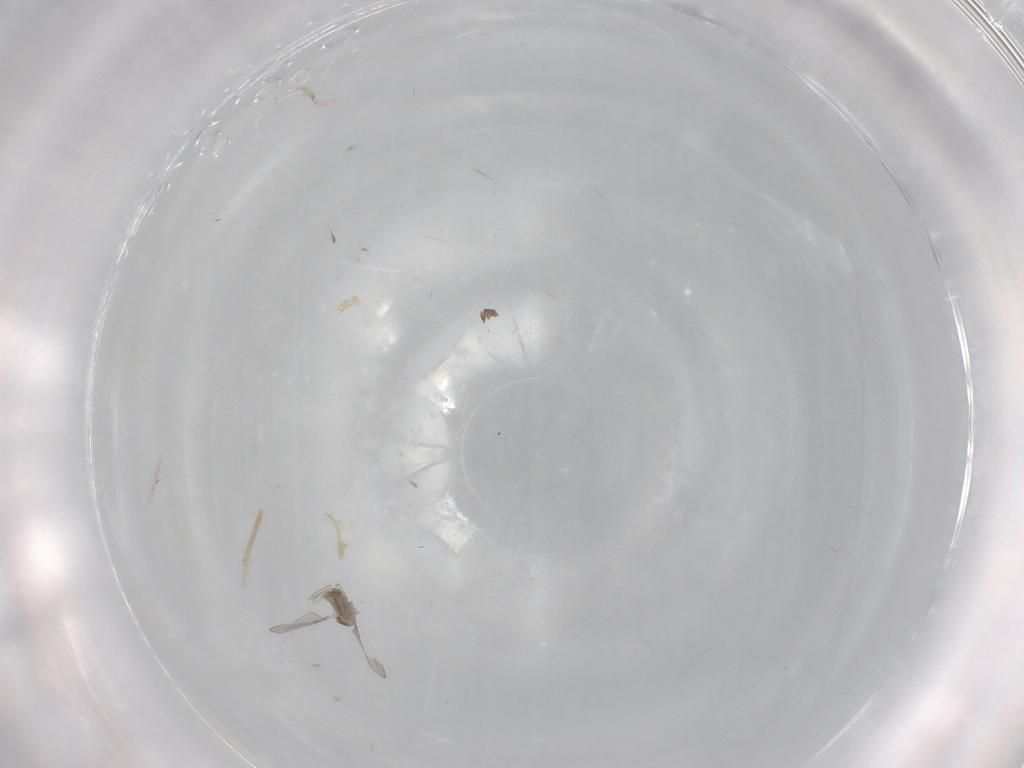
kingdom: Animalia
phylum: Arthropoda
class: Insecta
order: Diptera
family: Cecidomyiidae
